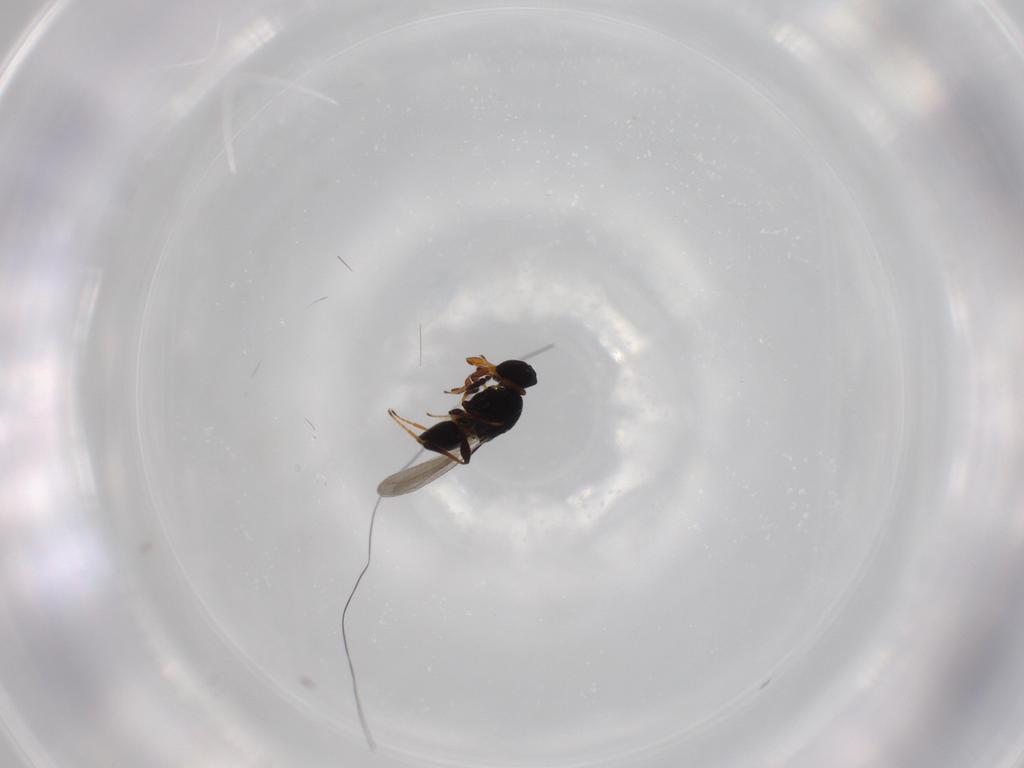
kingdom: Animalia
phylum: Arthropoda
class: Insecta
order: Hymenoptera
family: Platygastridae
